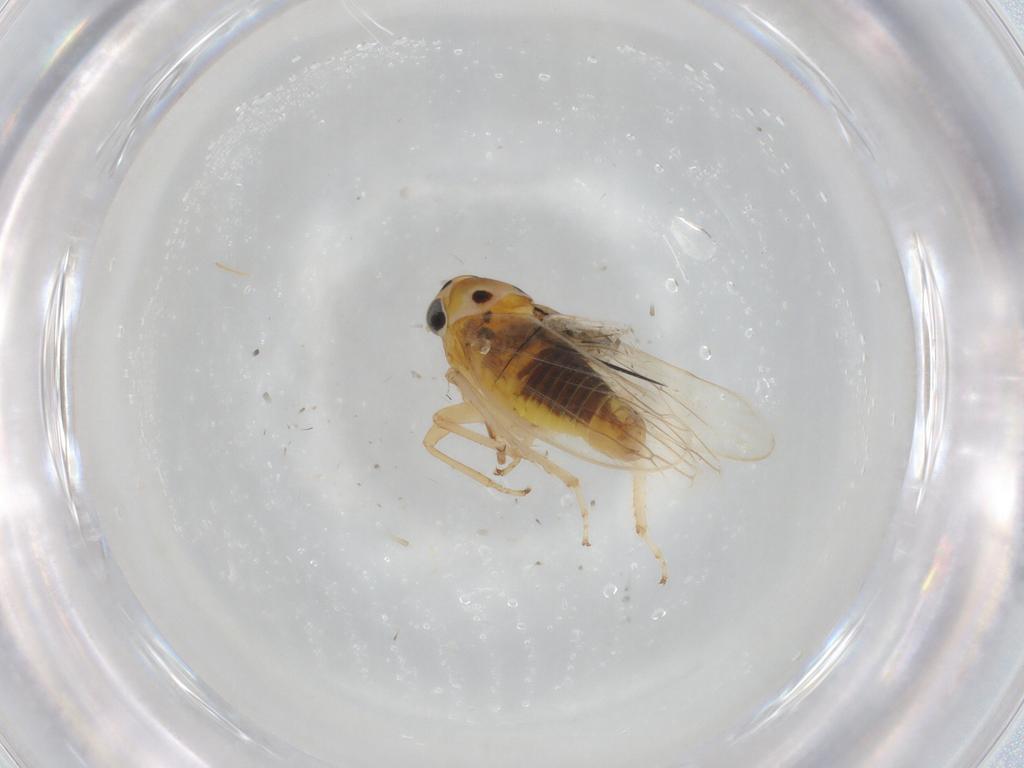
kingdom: Animalia
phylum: Arthropoda
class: Insecta
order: Hemiptera
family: Cicadellidae
